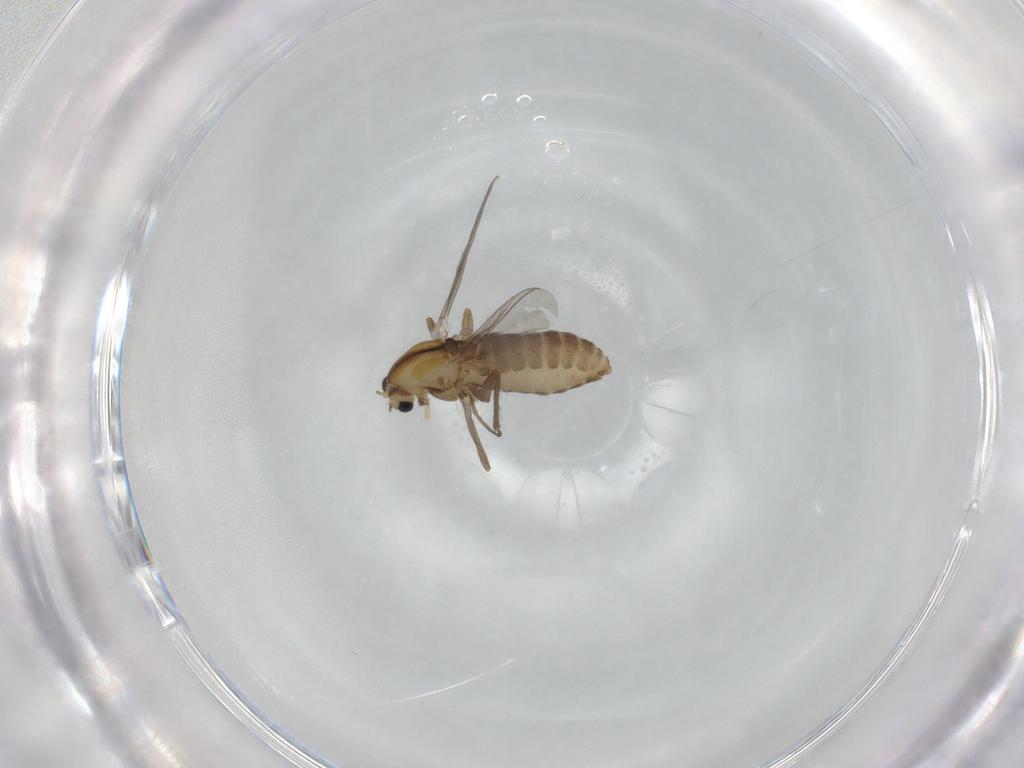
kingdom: Animalia
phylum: Arthropoda
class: Insecta
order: Diptera
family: Chironomidae
